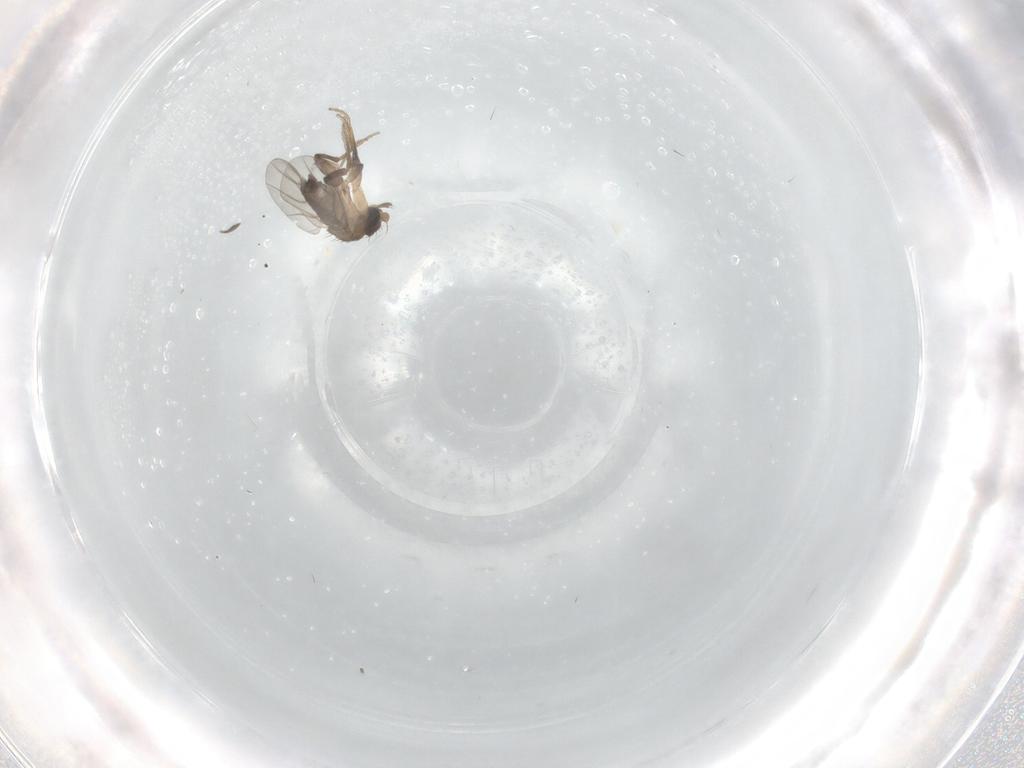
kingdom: Animalia
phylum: Arthropoda
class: Insecta
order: Diptera
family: Sciaridae
